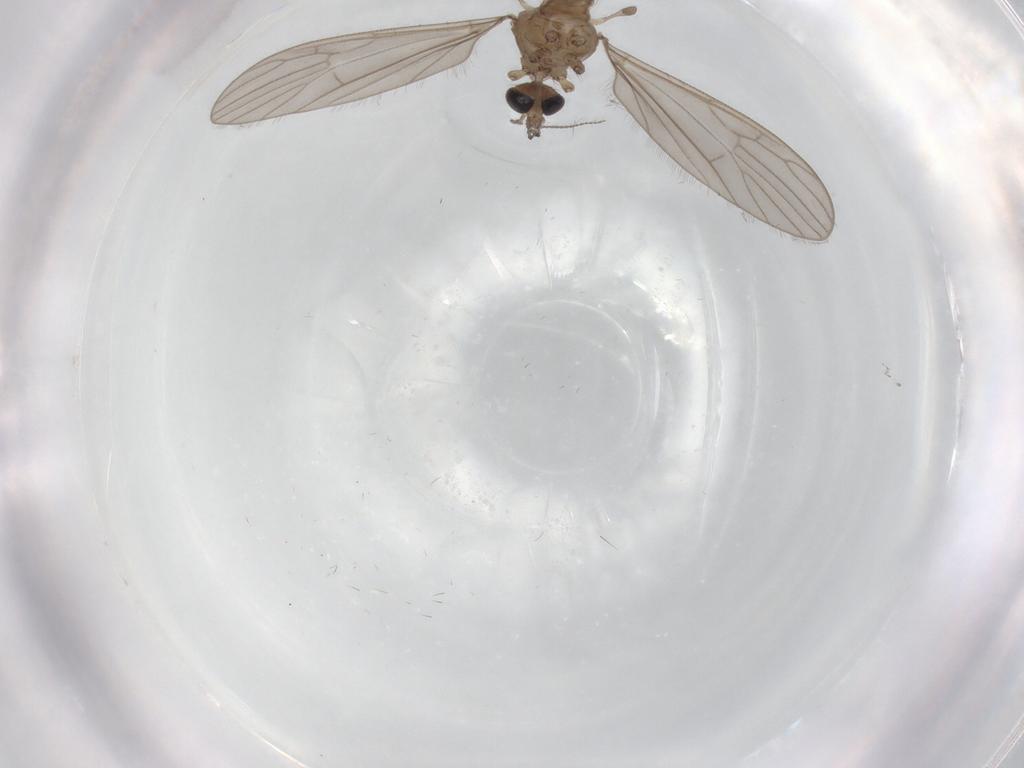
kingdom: Animalia
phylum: Arthropoda
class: Insecta
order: Diptera
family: Limoniidae
